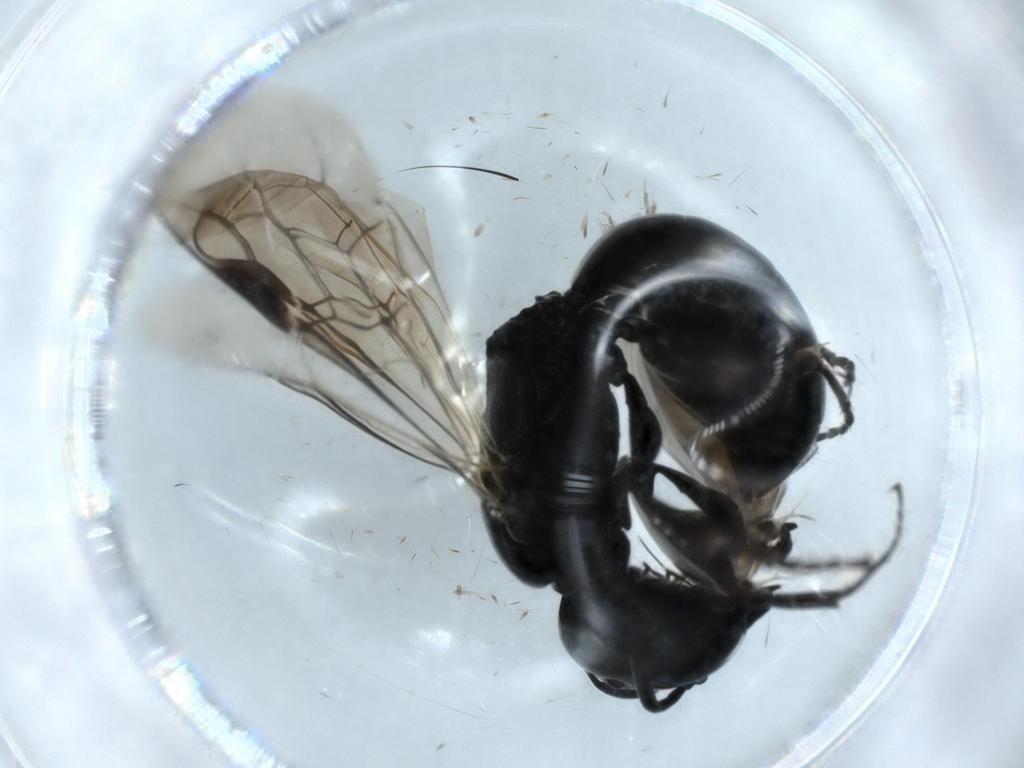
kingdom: Animalia
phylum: Arthropoda
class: Insecta
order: Hymenoptera
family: Crabronidae
